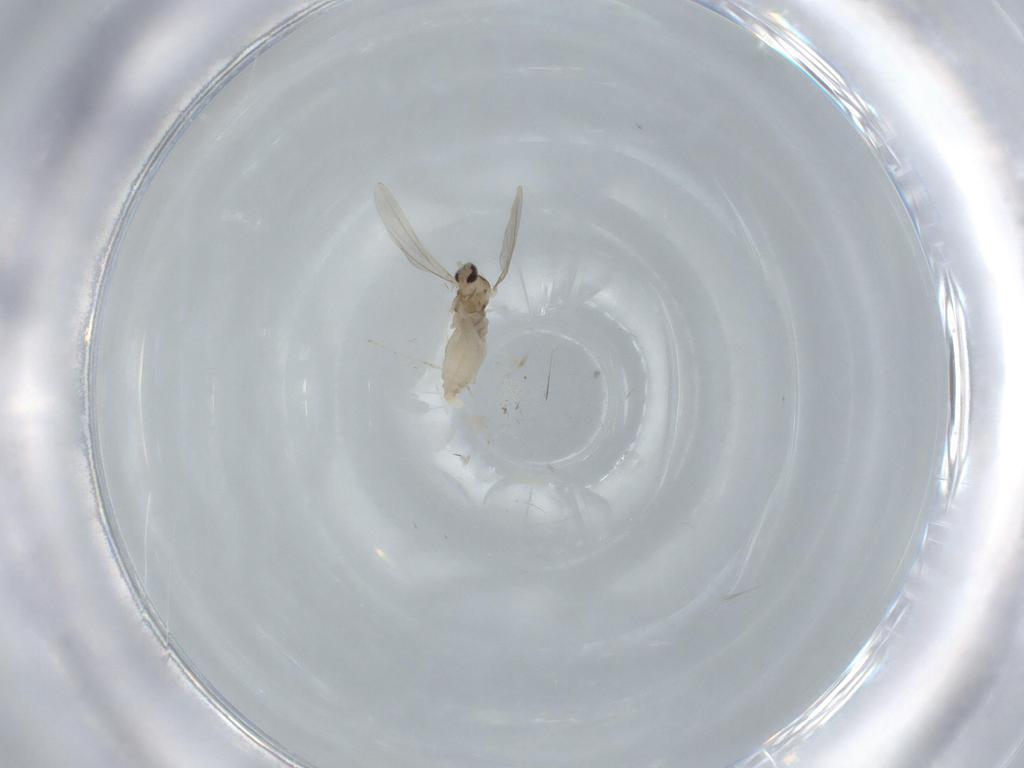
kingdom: Animalia
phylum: Arthropoda
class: Insecta
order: Diptera
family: Cecidomyiidae
